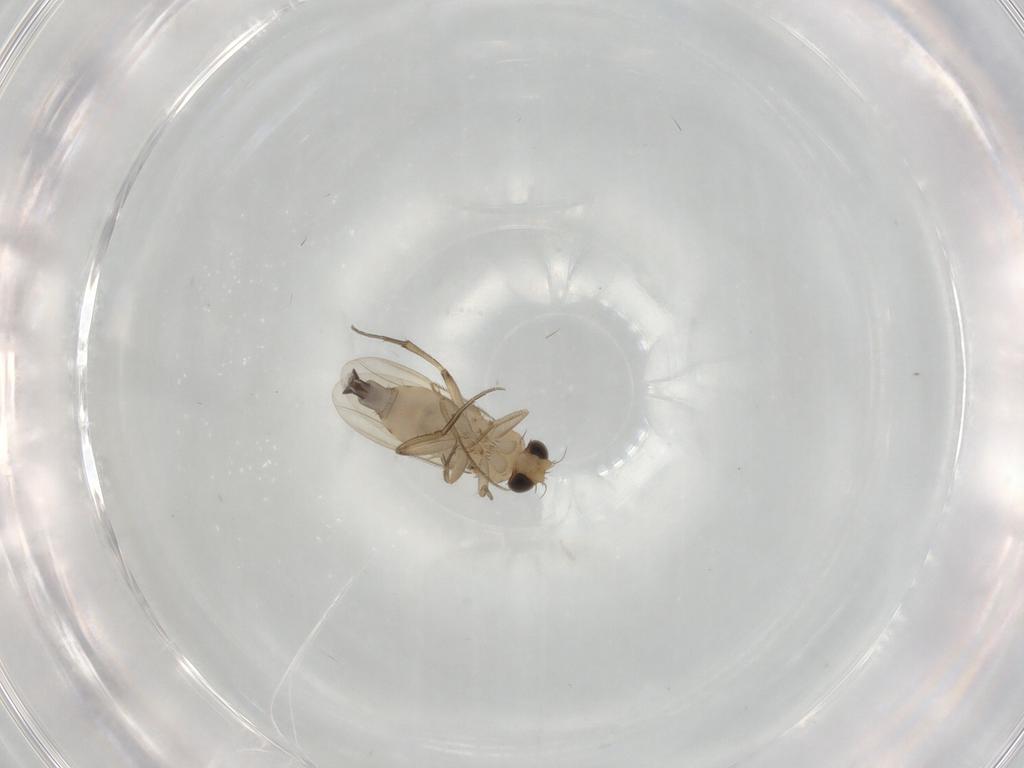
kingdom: Animalia
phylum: Arthropoda
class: Insecta
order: Diptera
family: Phoridae
